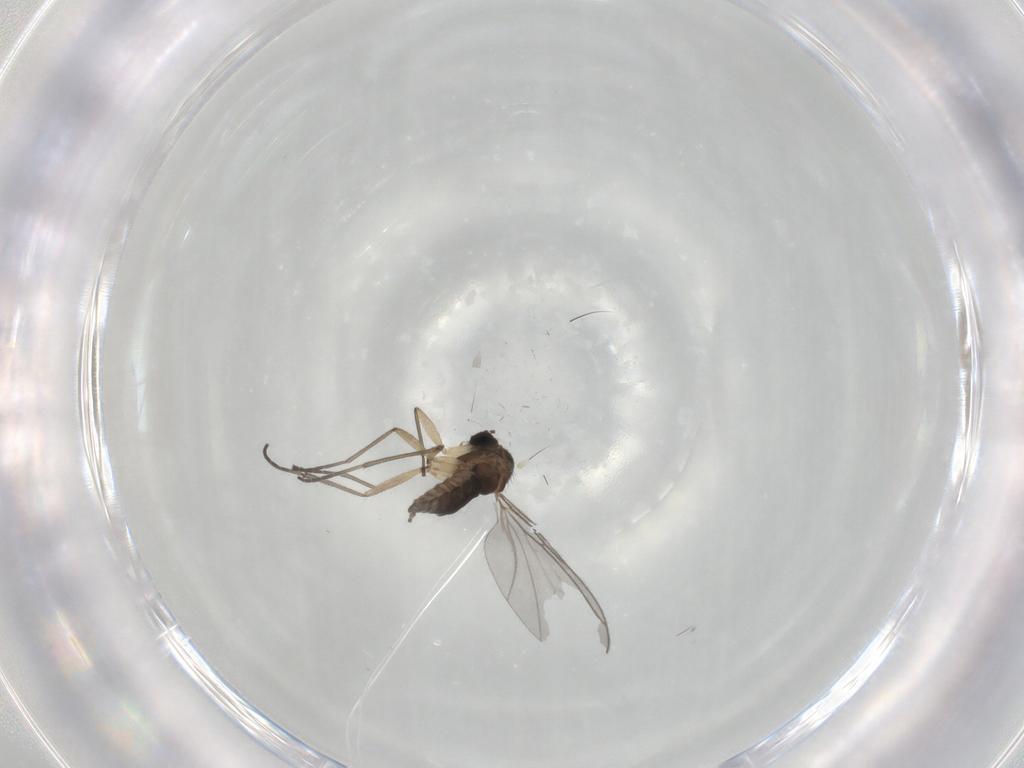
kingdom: Animalia
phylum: Arthropoda
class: Insecta
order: Diptera
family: Sciaridae
